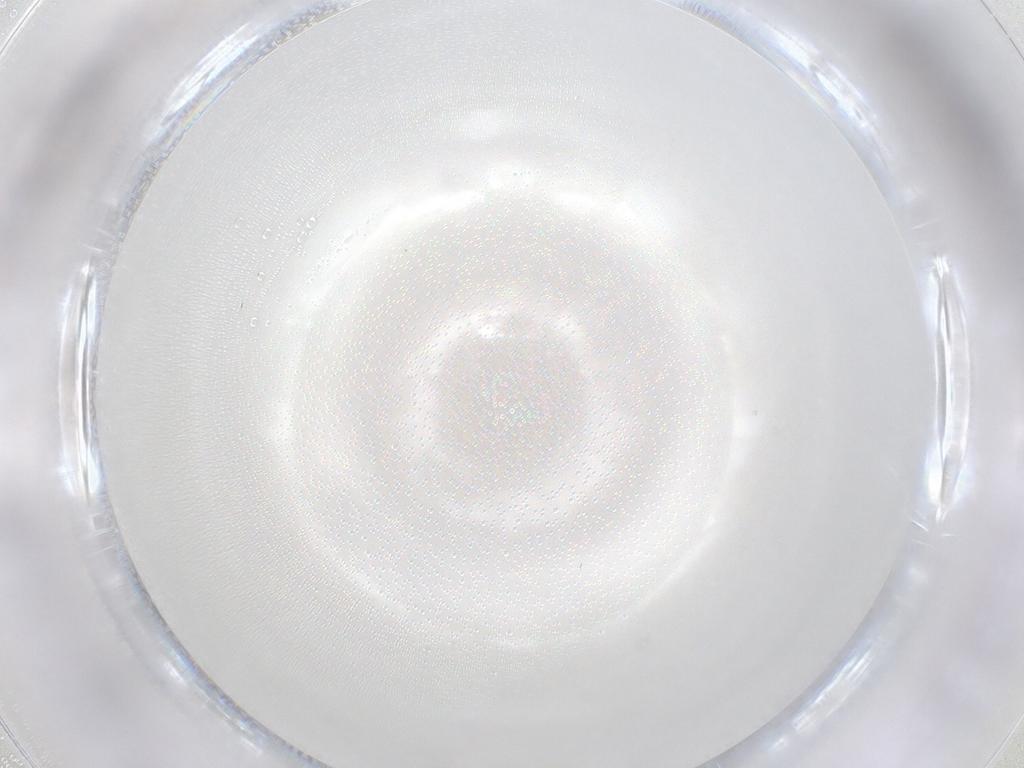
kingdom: Animalia
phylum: Arthropoda
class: Insecta
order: Diptera
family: Cecidomyiidae
